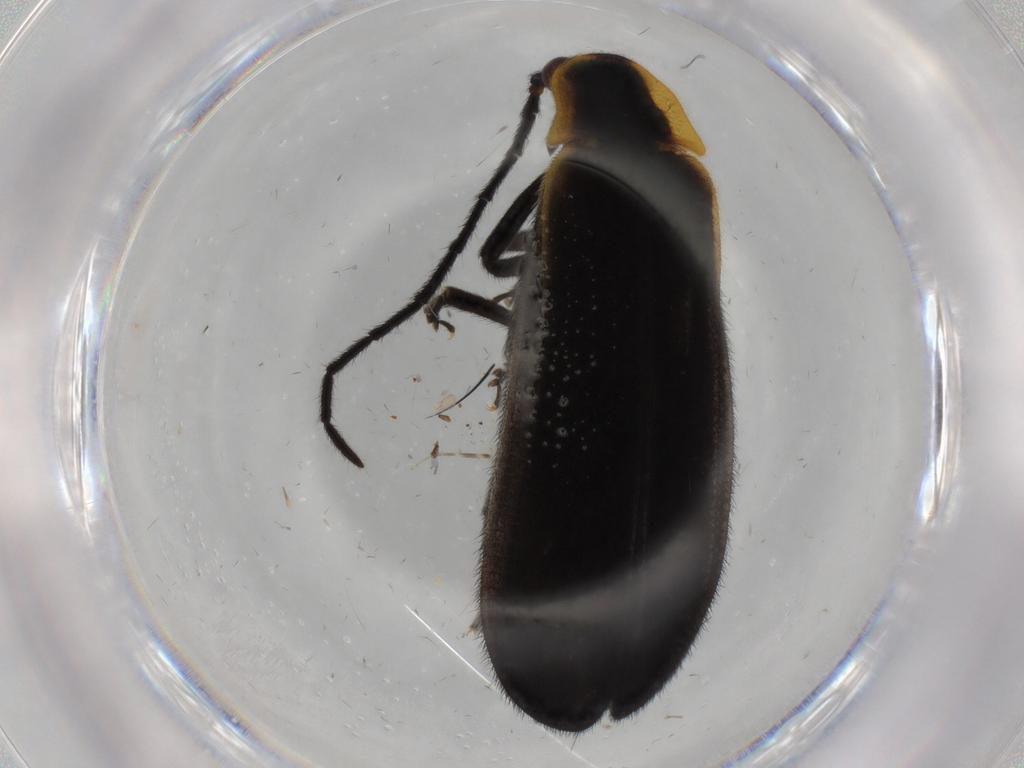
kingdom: Animalia
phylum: Arthropoda
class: Insecta
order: Coleoptera
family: Lycidae
